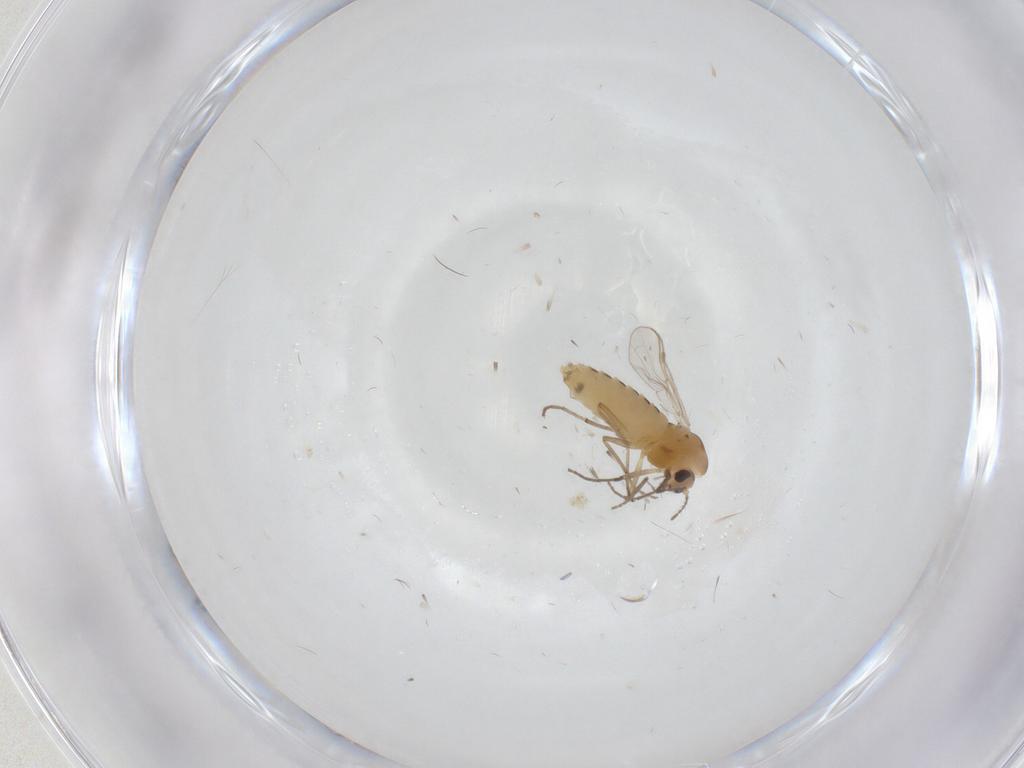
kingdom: Animalia
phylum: Arthropoda
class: Insecta
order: Diptera
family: Chironomidae
